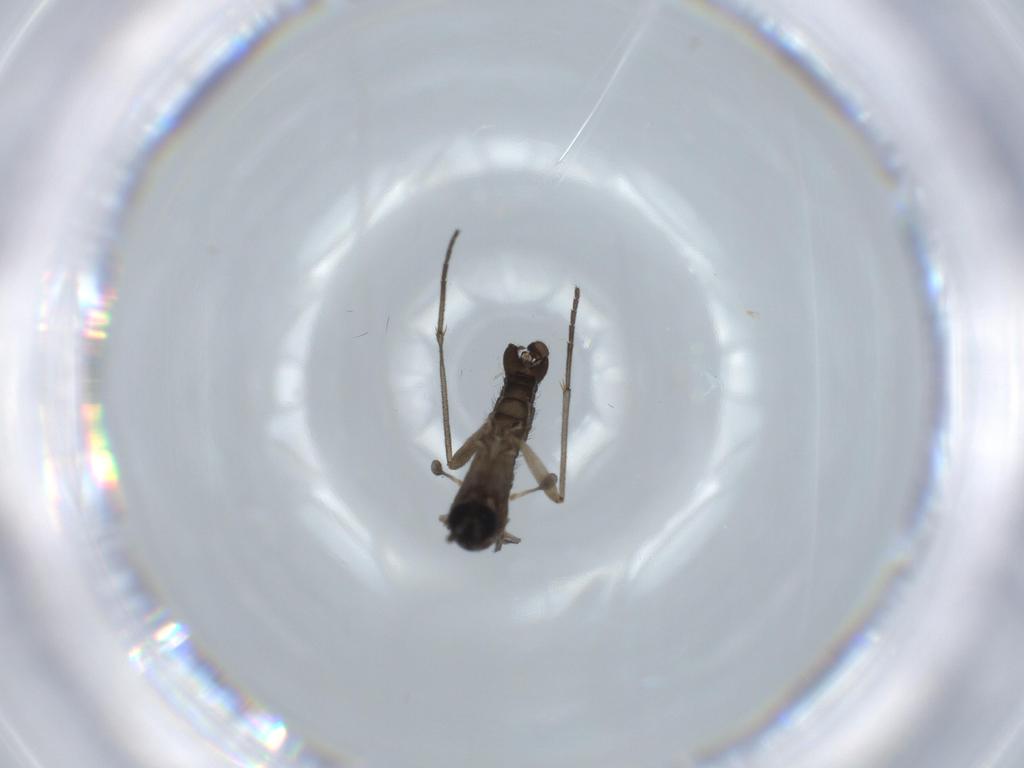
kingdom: Animalia
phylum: Arthropoda
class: Insecta
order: Diptera
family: Sciaridae
